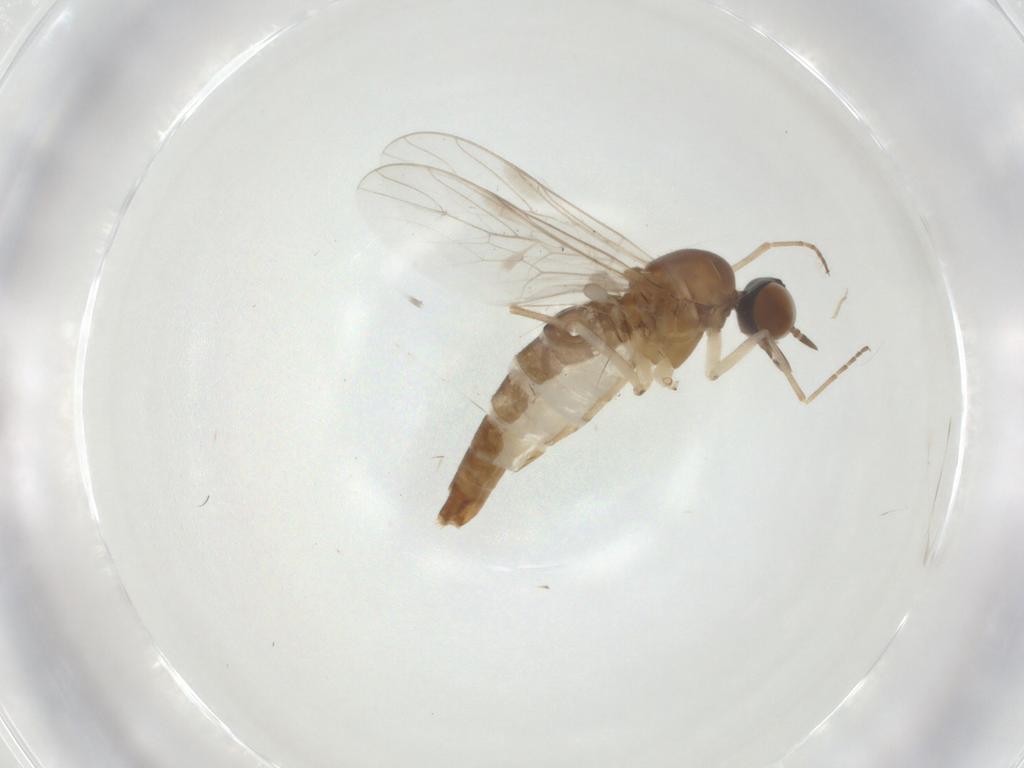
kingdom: Animalia
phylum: Arthropoda
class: Insecta
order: Diptera
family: Scenopinidae
